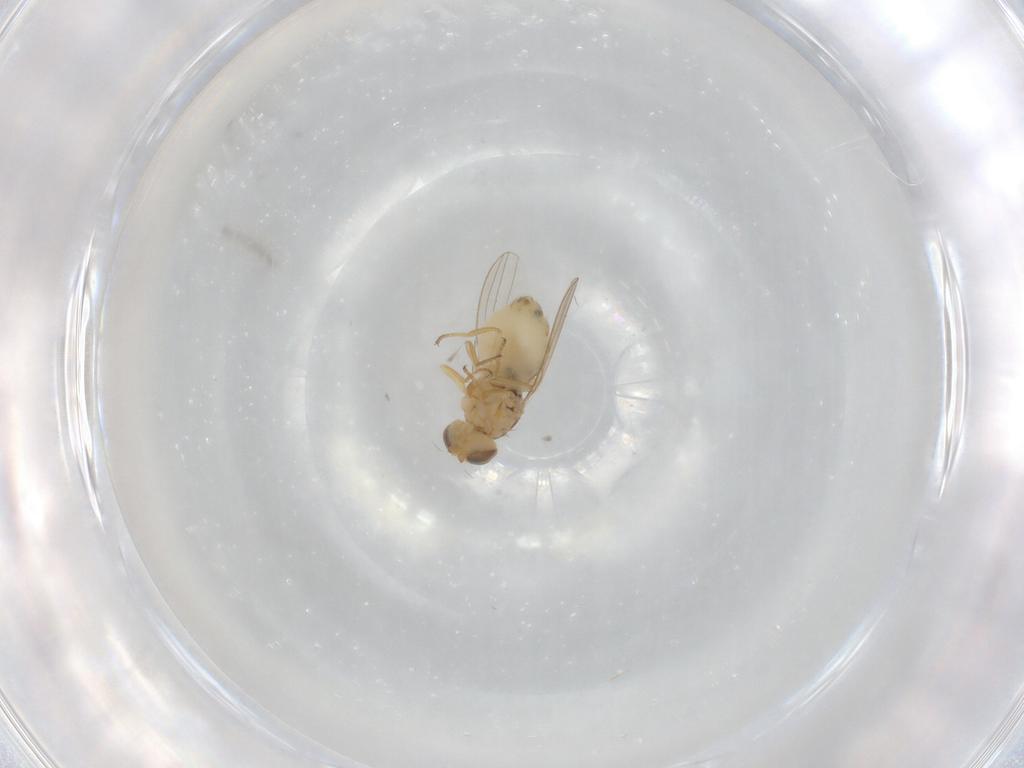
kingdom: Animalia
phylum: Arthropoda
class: Insecta
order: Diptera
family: Chyromyidae
